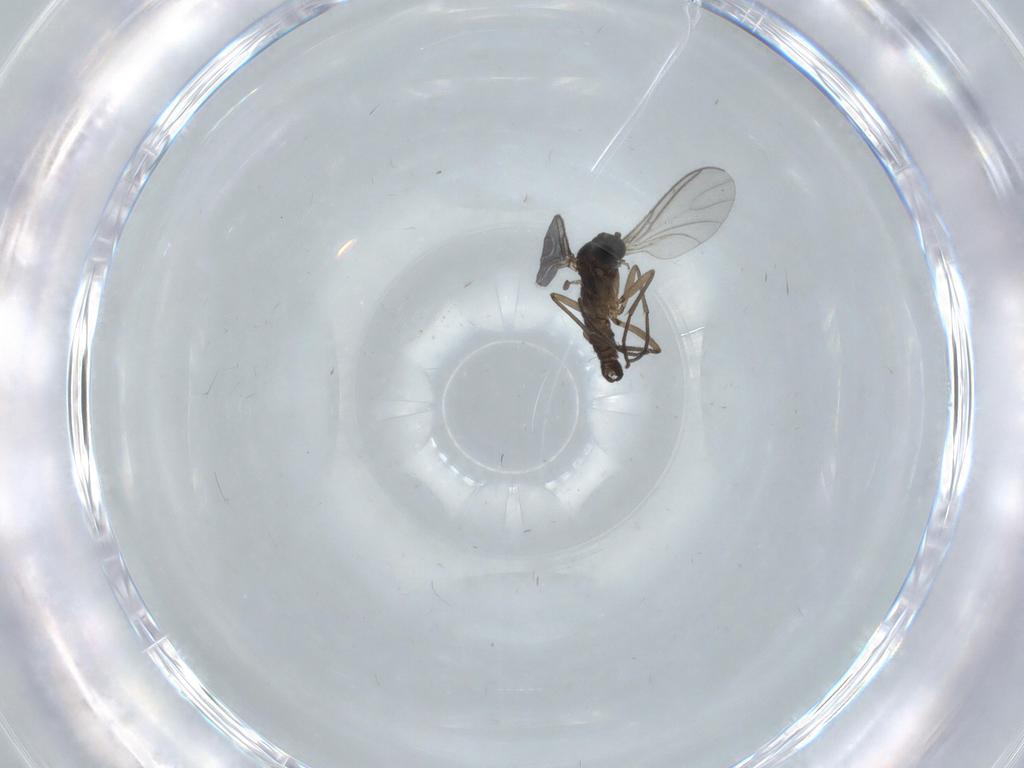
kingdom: Animalia
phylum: Arthropoda
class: Insecta
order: Diptera
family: Sciaridae
